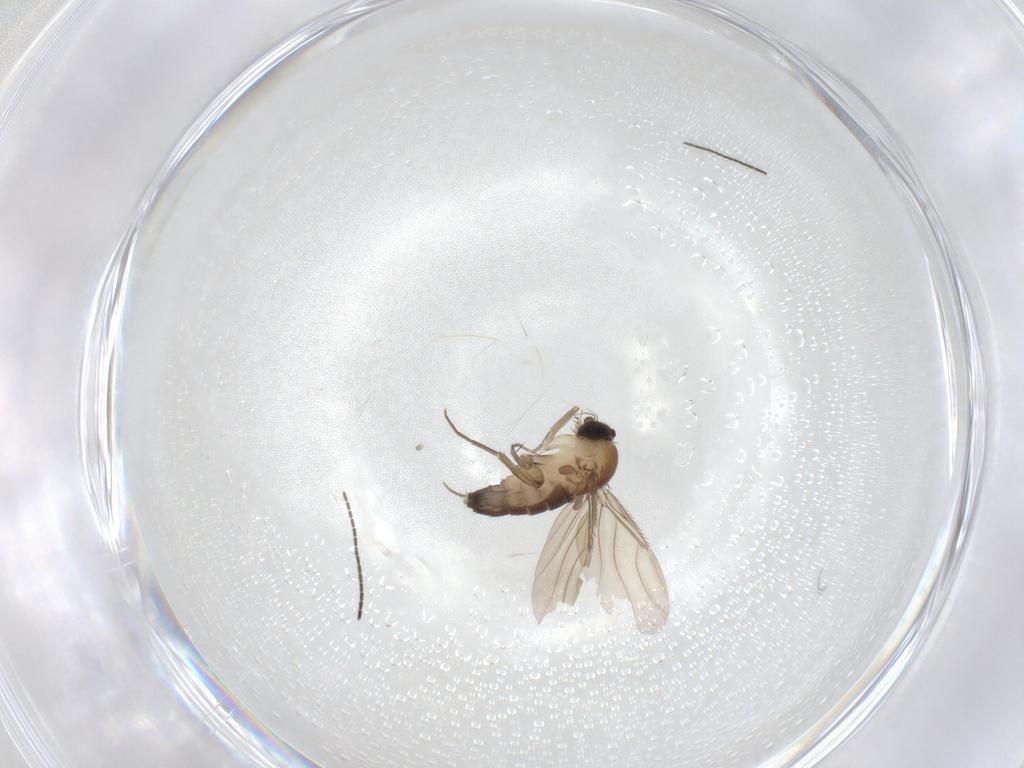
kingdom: Animalia
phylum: Arthropoda
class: Insecta
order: Diptera
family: Phoridae
